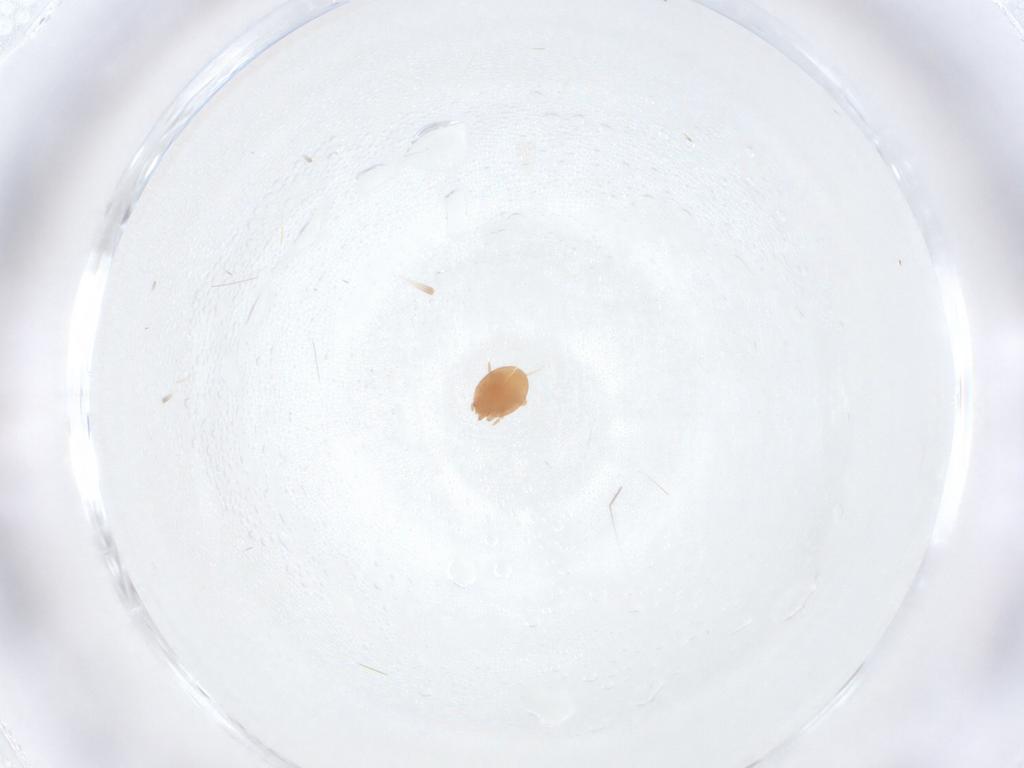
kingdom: Animalia
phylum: Arthropoda
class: Arachnida
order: Mesostigmata
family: Trematuridae
